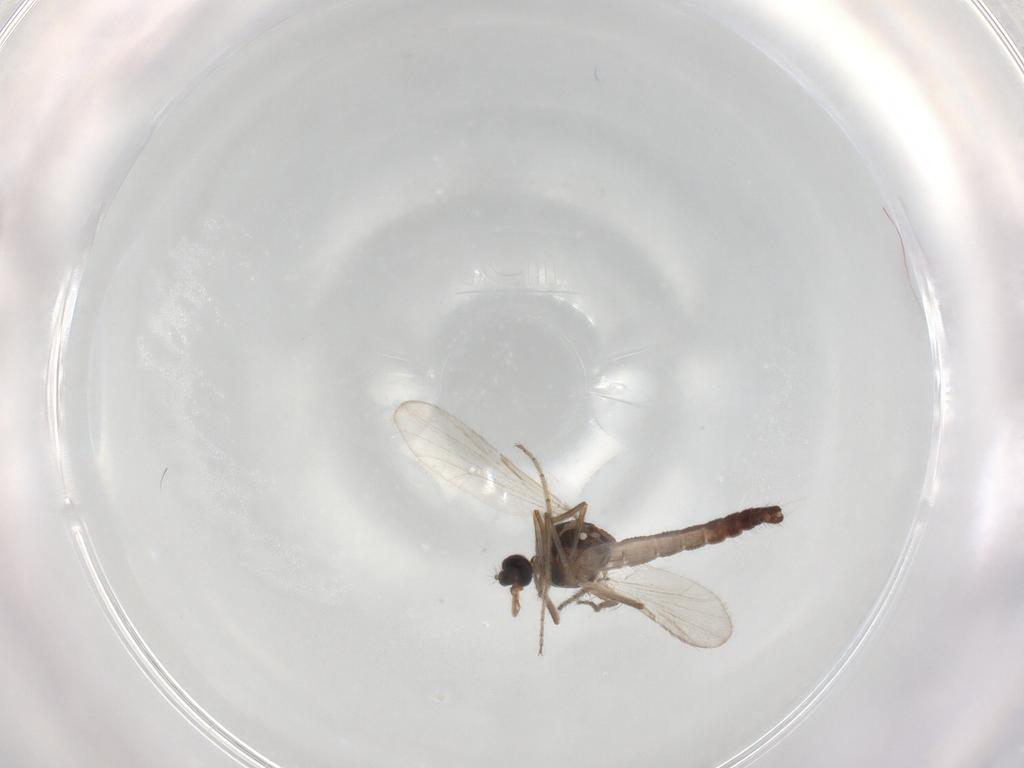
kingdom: Animalia
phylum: Arthropoda
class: Insecta
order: Diptera
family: Ceratopogonidae
